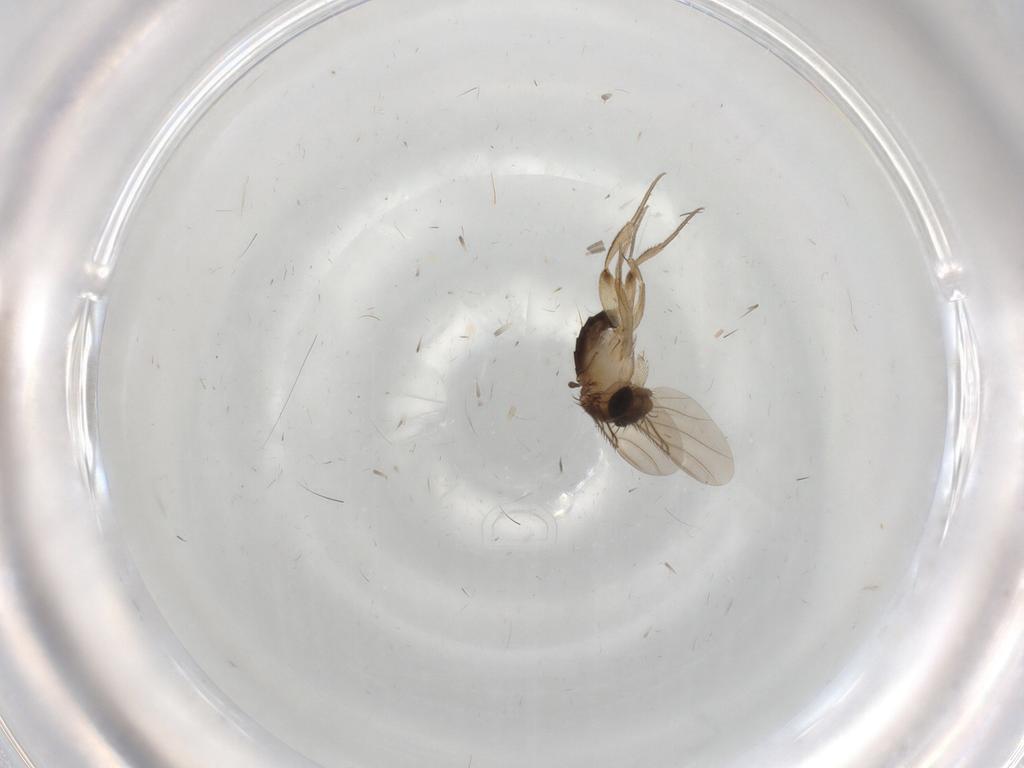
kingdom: Animalia
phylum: Arthropoda
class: Insecta
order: Diptera
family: Phoridae
